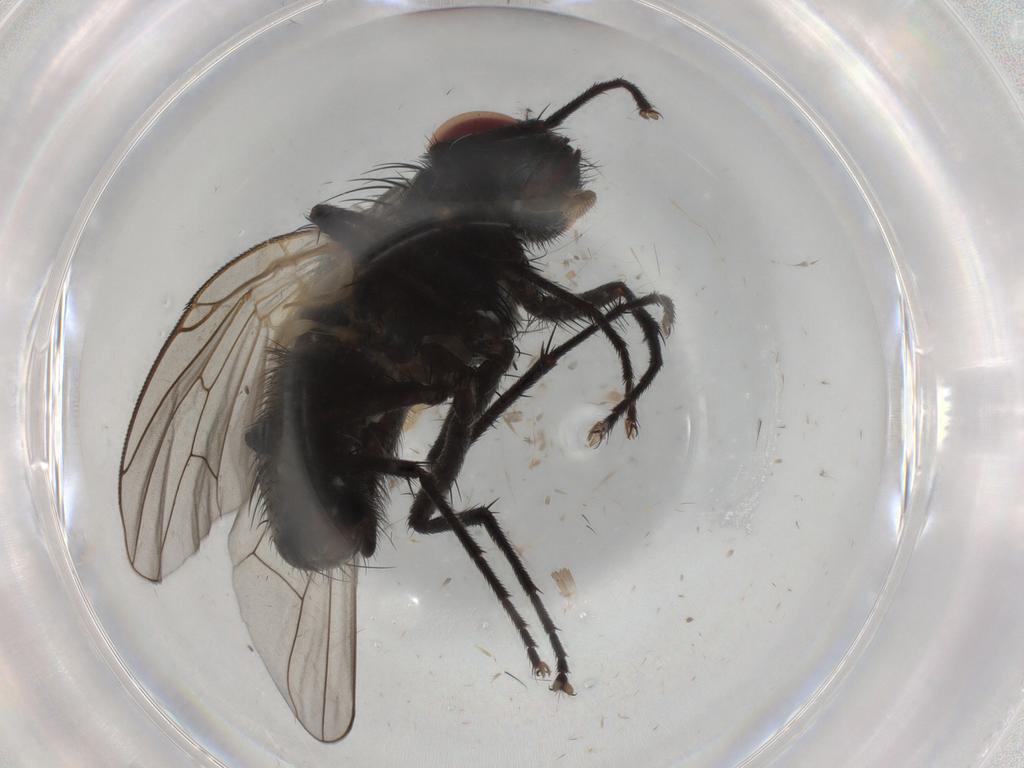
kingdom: Animalia
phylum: Arthropoda
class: Insecta
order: Diptera
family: Muscidae
